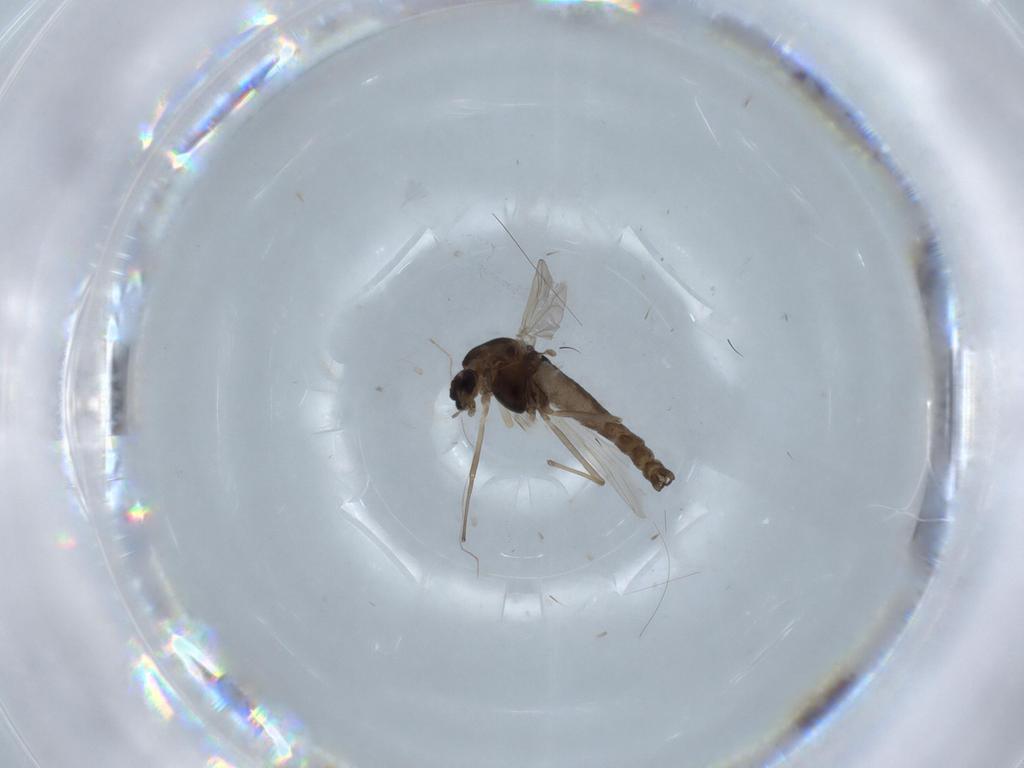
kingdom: Animalia
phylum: Arthropoda
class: Insecta
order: Diptera
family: Chironomidae
